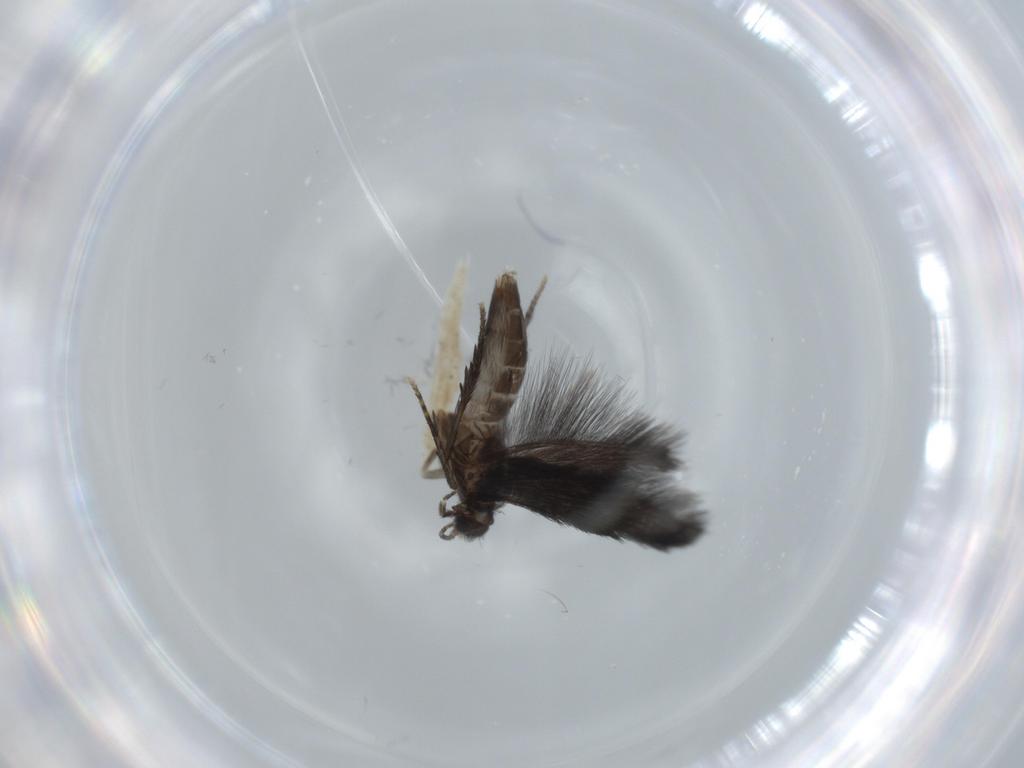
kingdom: Animalia
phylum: Arthropoda
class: Insecta
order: Trichoptera
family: Hydroptilidae
